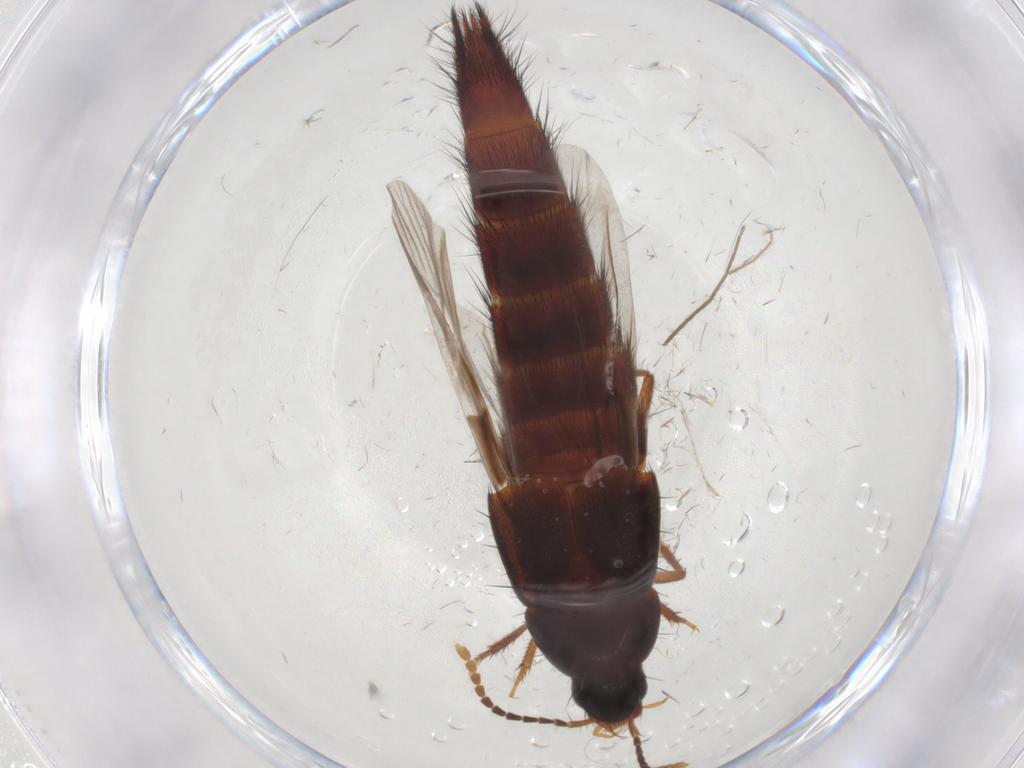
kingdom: Animalia
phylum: Arthropoda
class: Insecta
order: Coleoptera
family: Staphylinidae
